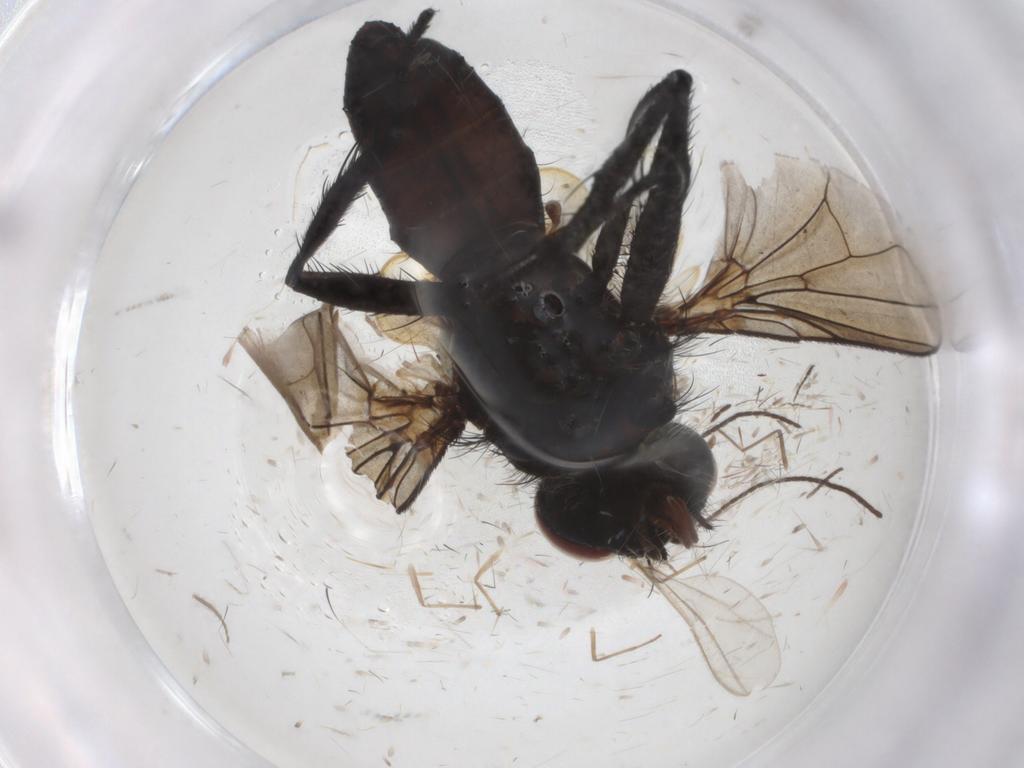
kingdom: Animalia
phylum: Arthropoda
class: Insecta
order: Diptera
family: Tachinidae
